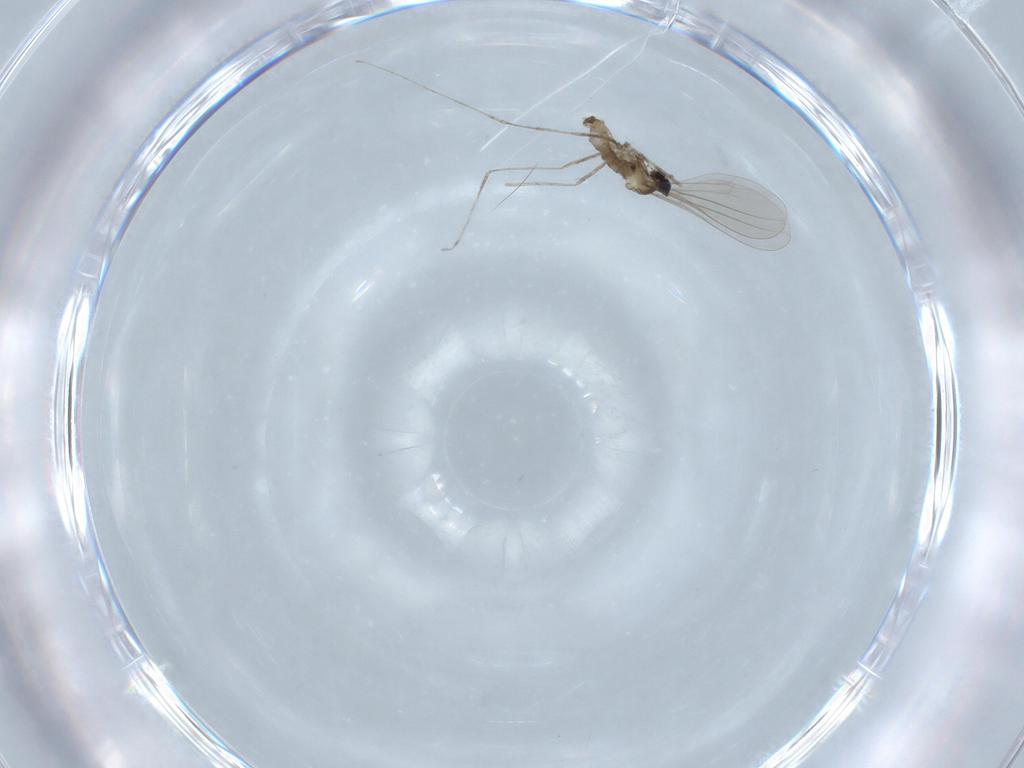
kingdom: Animalia
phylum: Arthropoda
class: Insecta
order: Diptera
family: Cecidomyiidae
